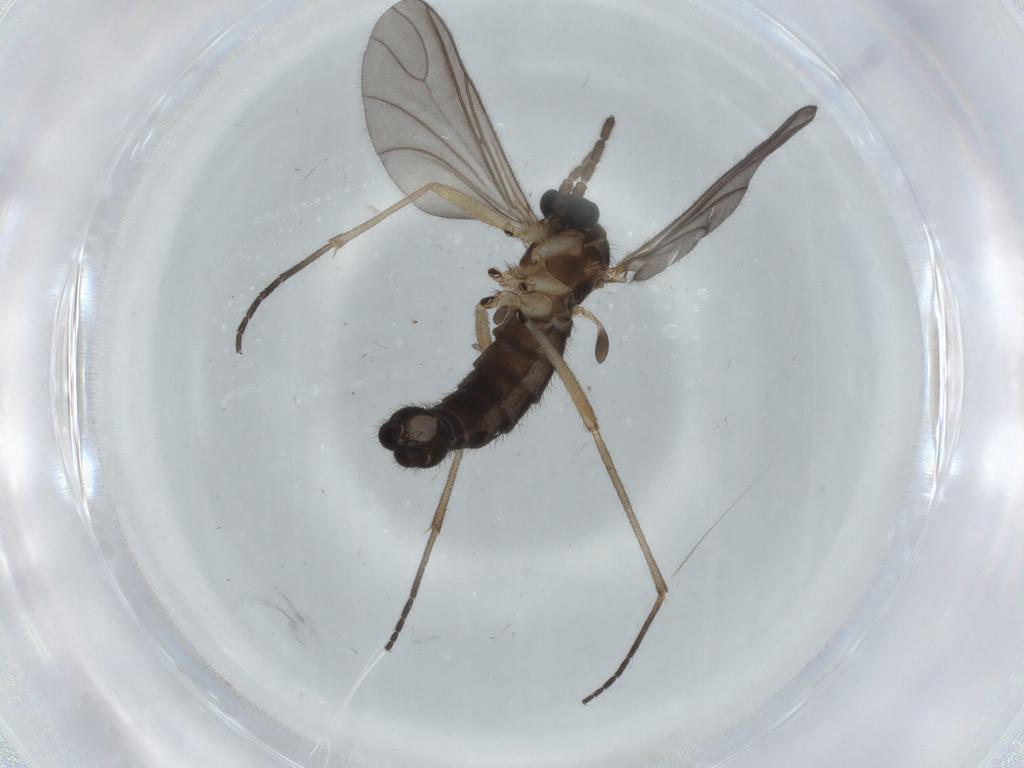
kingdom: Animalia
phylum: Arthropoda
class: Insecta
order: Diptera
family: Sciaridae
